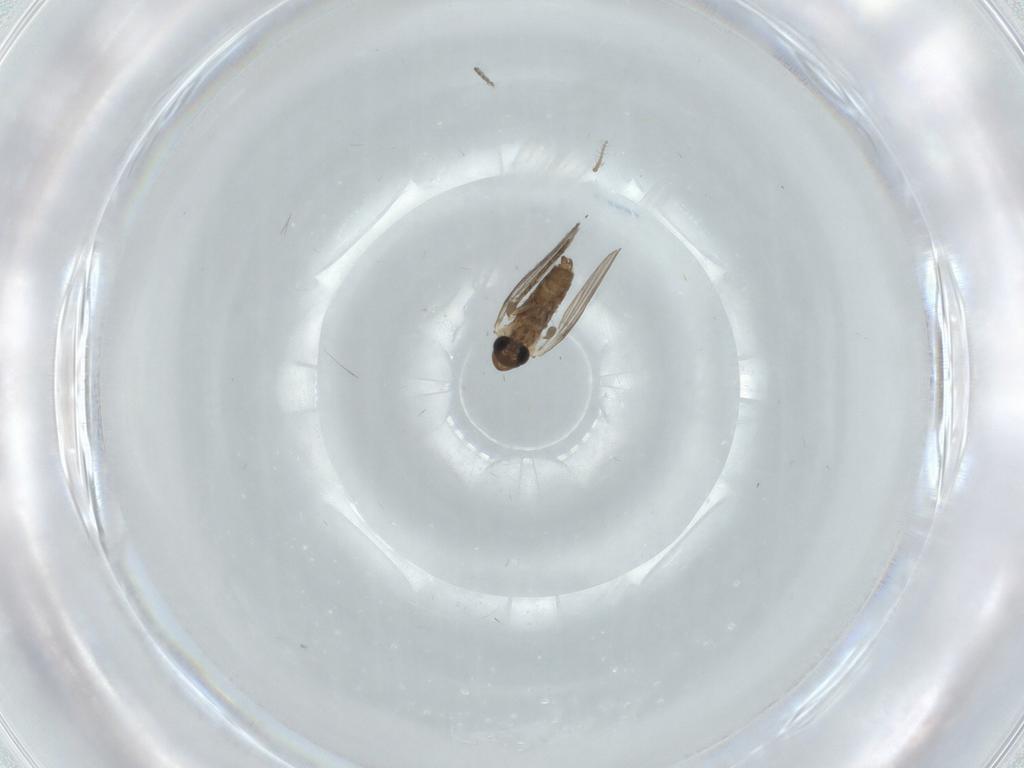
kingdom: Animalia
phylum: Arthropoda
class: Insecta
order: Diptera
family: Limoniidae
